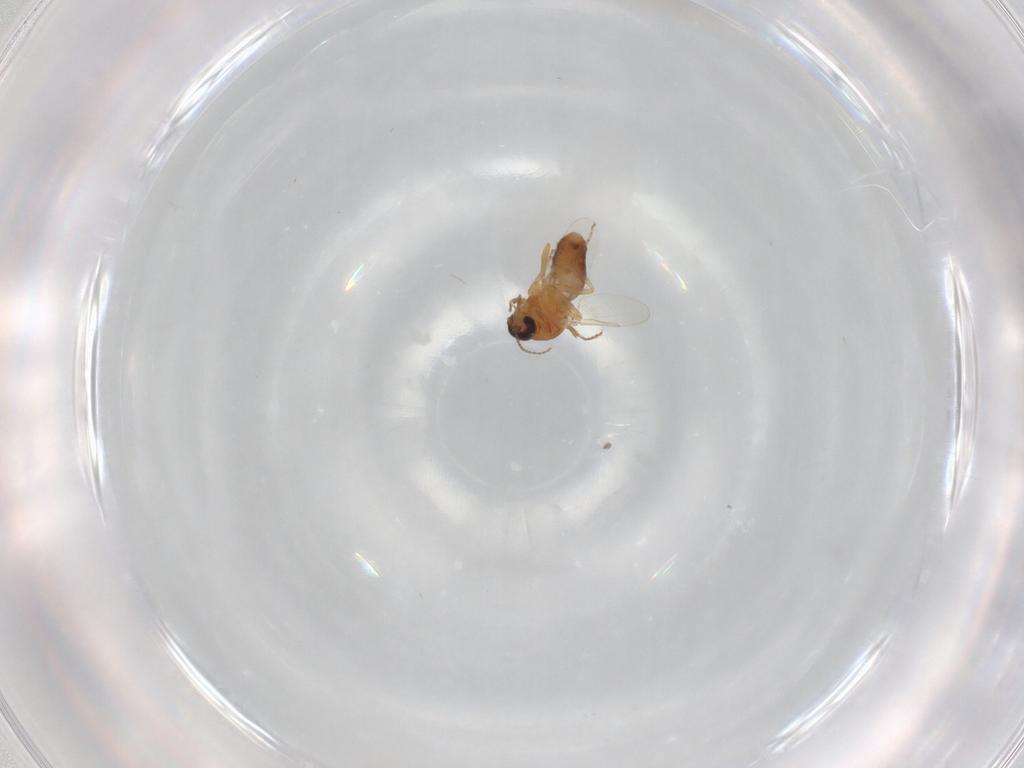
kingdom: Animalia
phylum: Arthropoda
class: Insecta
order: Diptera
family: Ceratopogonidae
